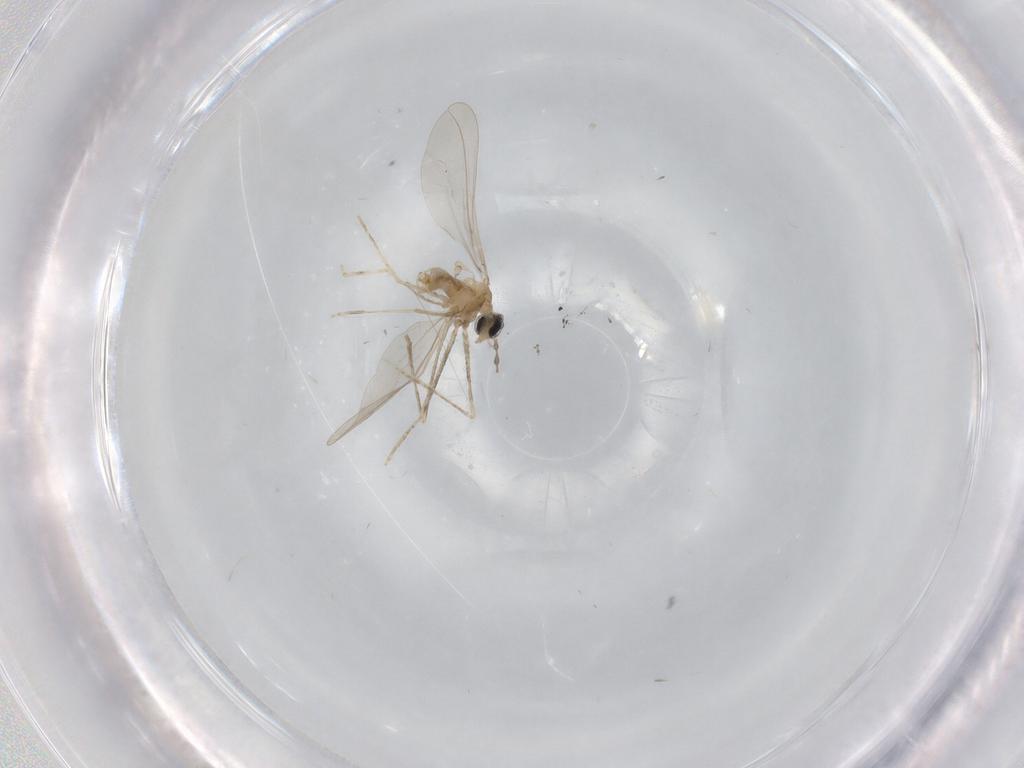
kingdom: Animalia
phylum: Arthropoda
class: Insecta
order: Diptera
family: Cecidomyiidae
